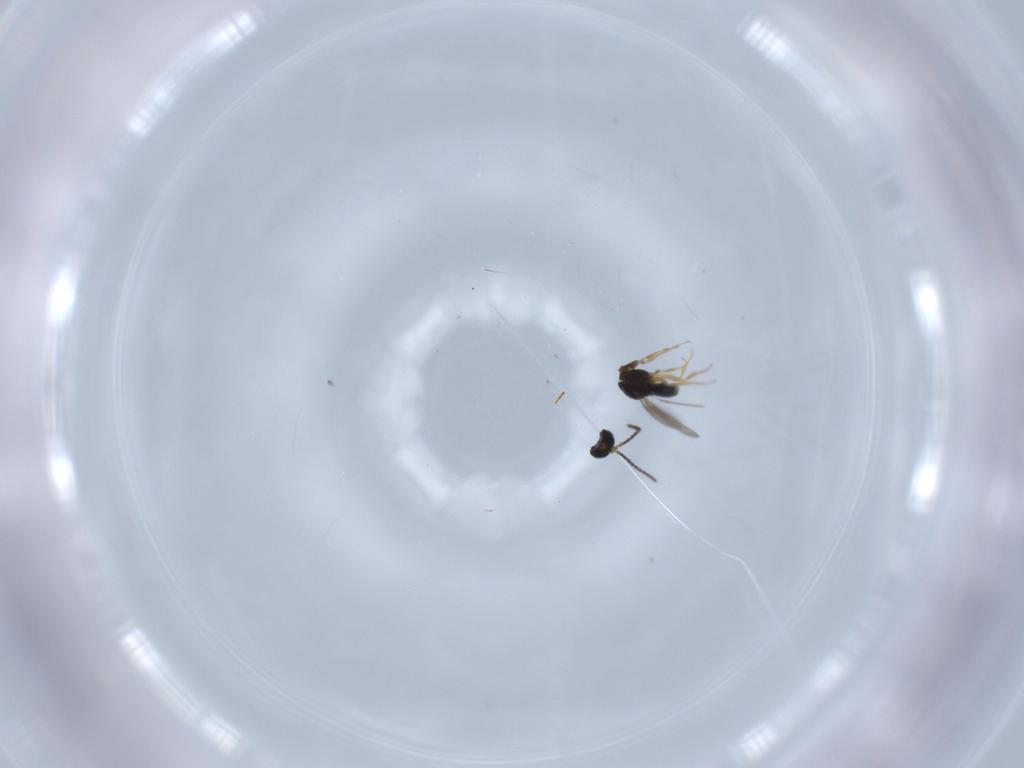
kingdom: Animalia
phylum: Arthropoda
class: Insecta
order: Hymenoptera
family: Scelionidae
